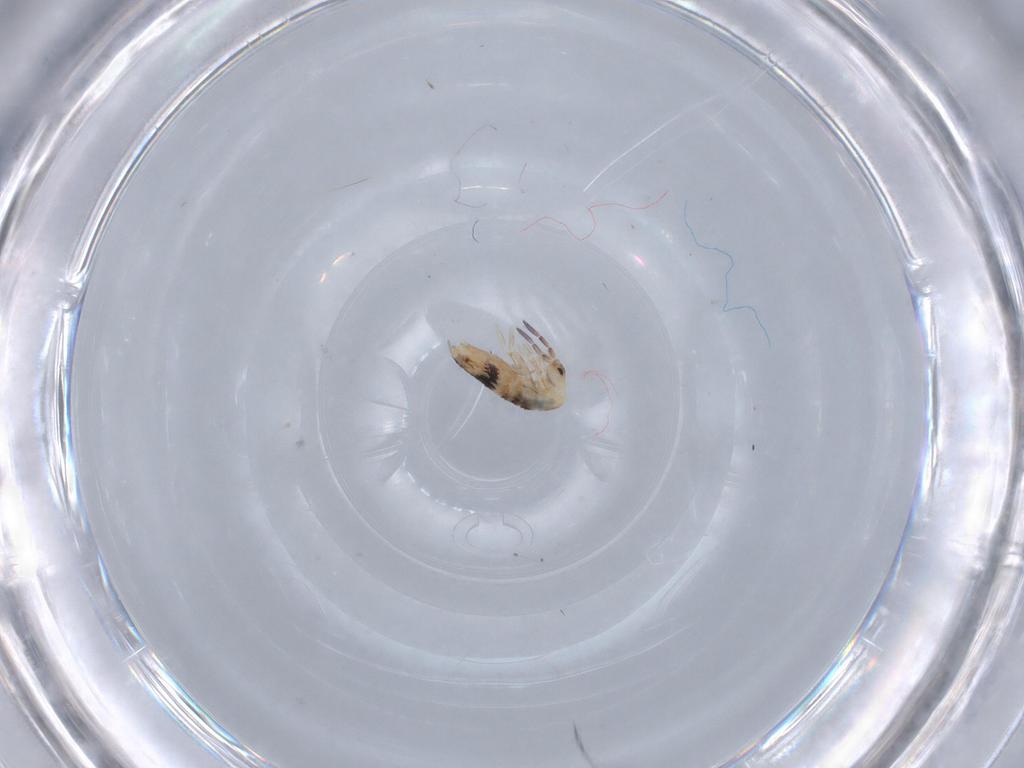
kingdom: Animalia
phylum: Arthropoda
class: Collembola
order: Entomobryomorpha
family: Entomobryidae
